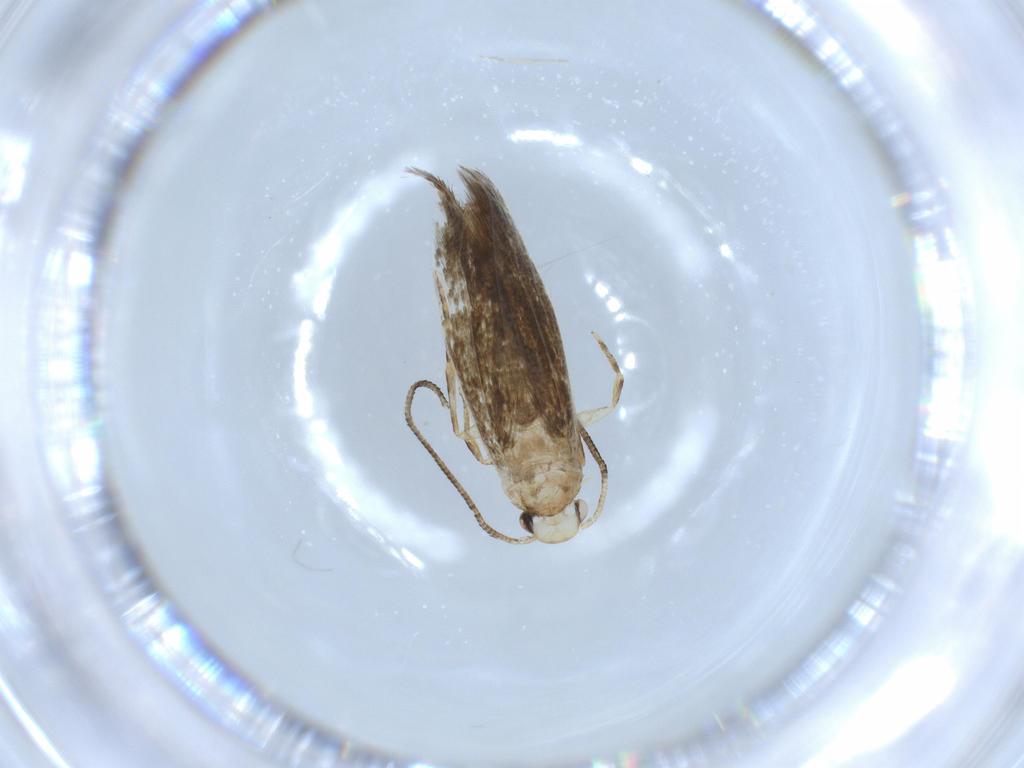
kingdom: Animalia
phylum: Arthropoda
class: Insecta
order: Lepidoptera
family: Tineidae
